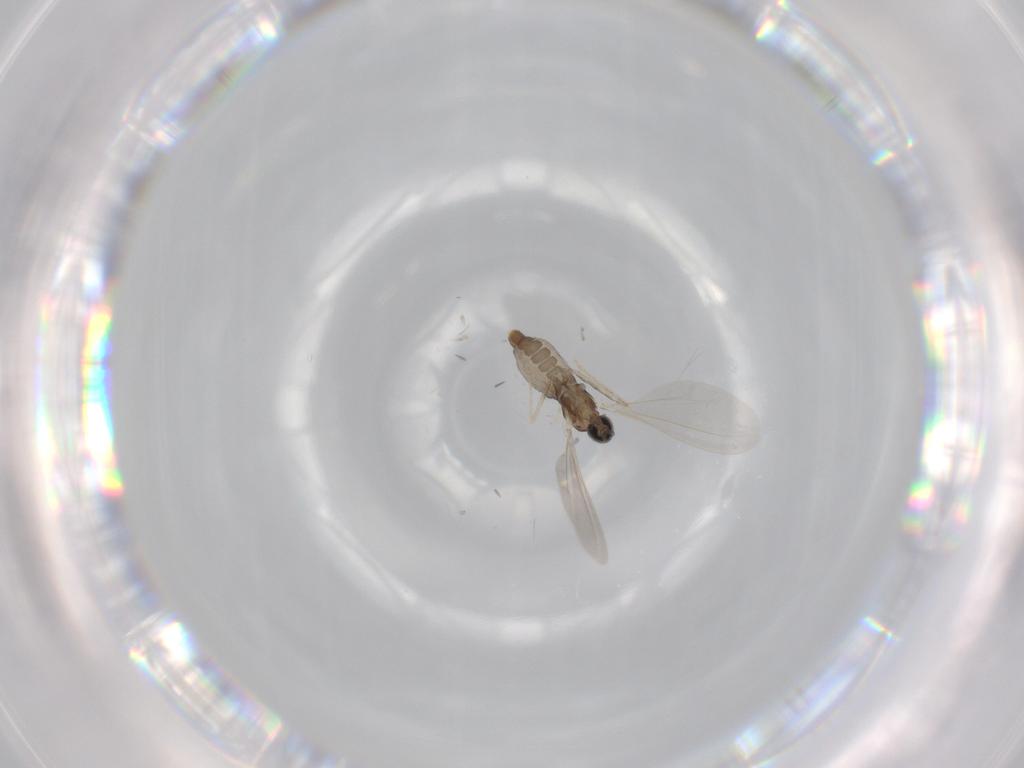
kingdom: Animalia
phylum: Arthropoda
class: Insecta
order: Diptera
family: Cecidomyiidae
